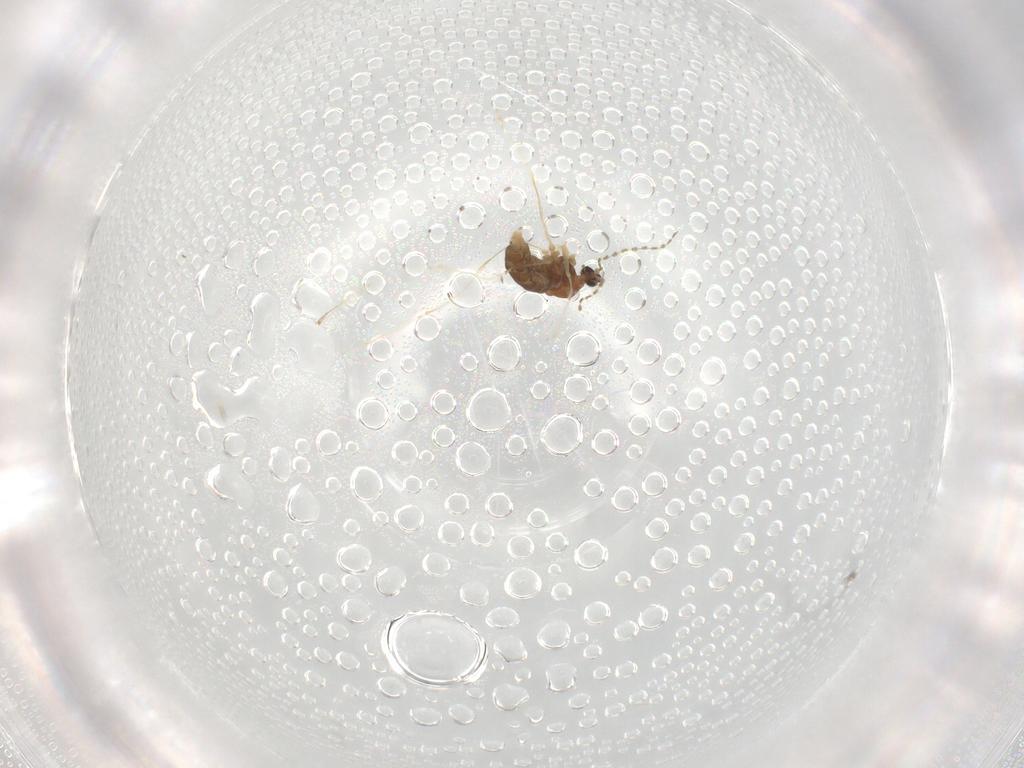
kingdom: Animalia
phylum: Arthropoda
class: Insecta
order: Diptera
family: Cecidomyiidae
